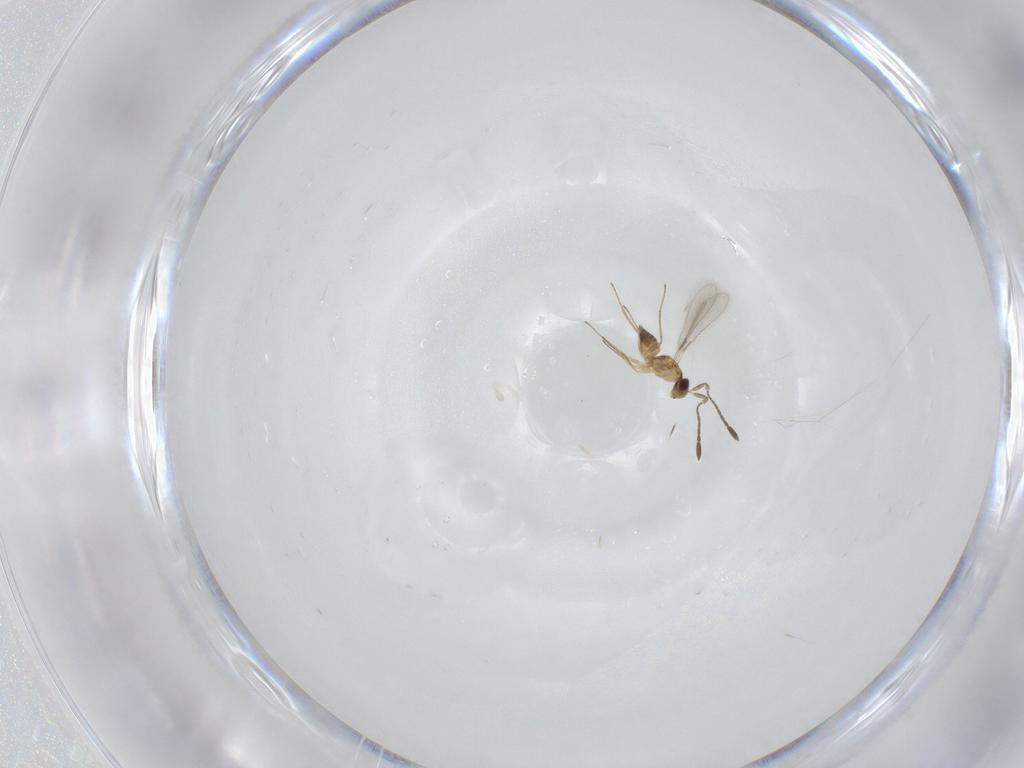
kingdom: Animalia
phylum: Arthropoda
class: Insecta
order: Hymenoptera
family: Mymaridae
